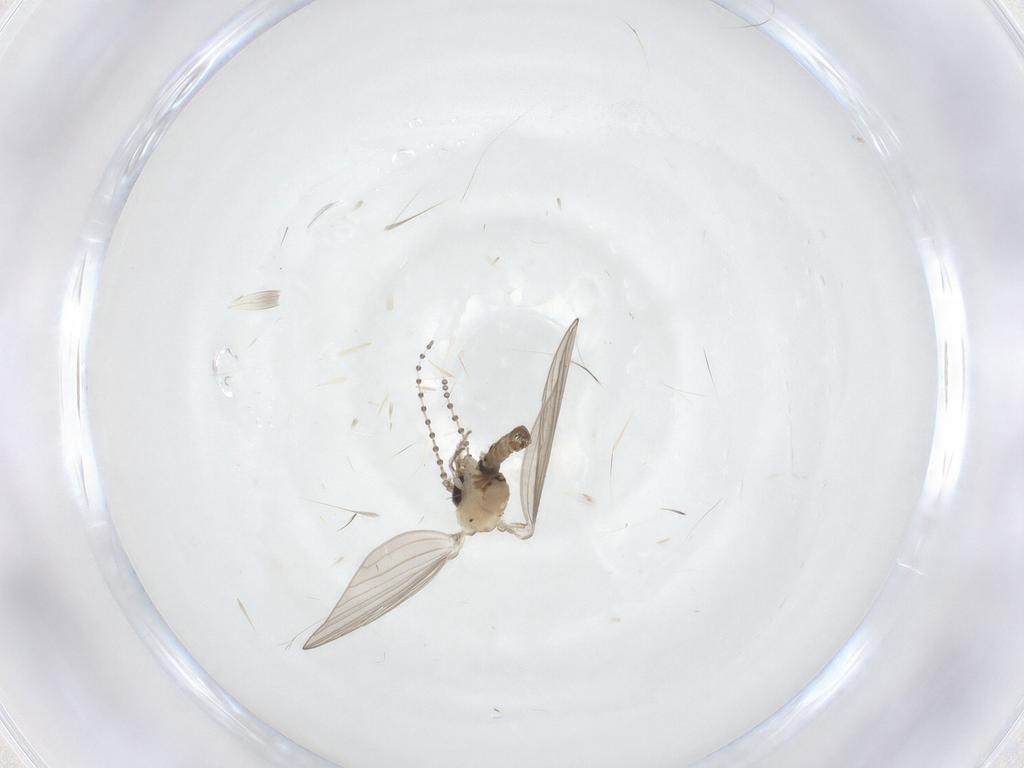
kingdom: Animalia
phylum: Arthropoda
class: Insecta
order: Diptera
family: Psychodidae
